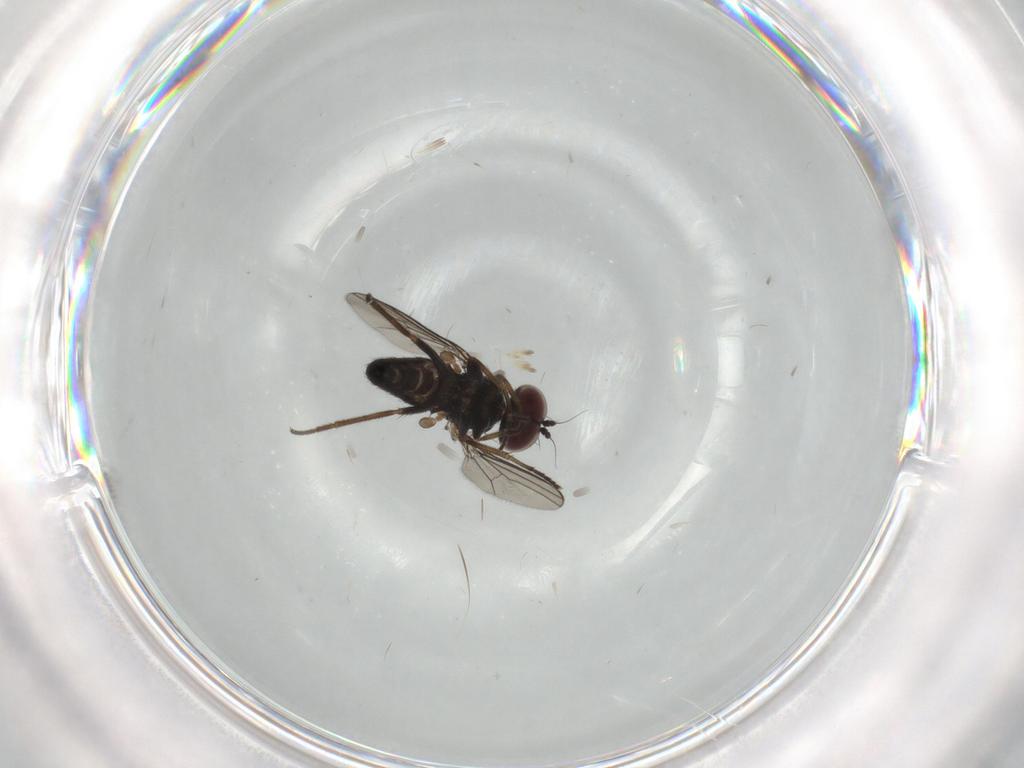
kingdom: Animalia
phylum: Arthropoda
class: Insecta
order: Diptera
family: Dolichopodidae
